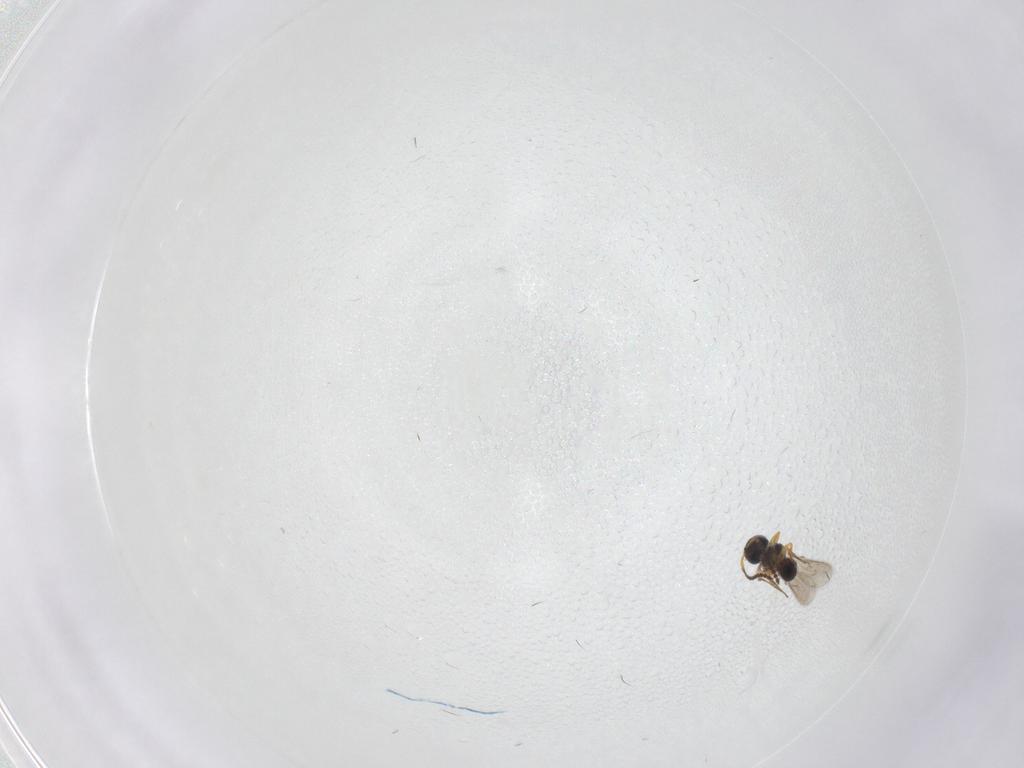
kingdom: Animalia
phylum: Arthropoda
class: Insecta
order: Hymenoptera
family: Scelionidae
